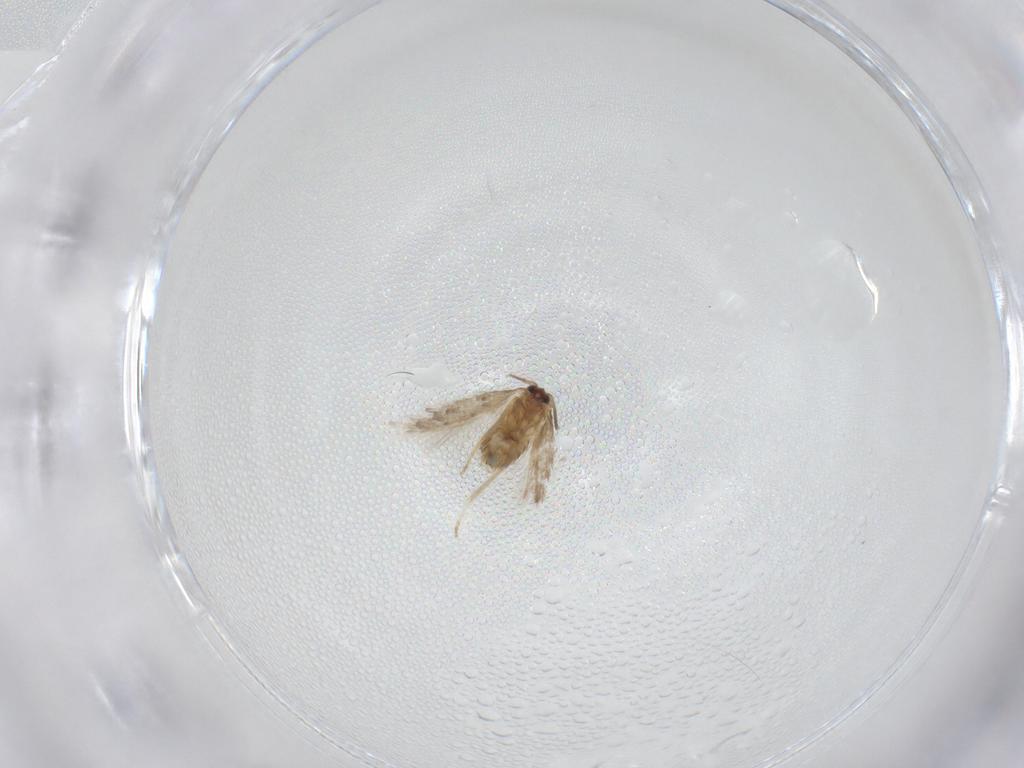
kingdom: Animalia
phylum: Arthropoda
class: Insecta
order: Lepidoptera
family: Nepticulidae
